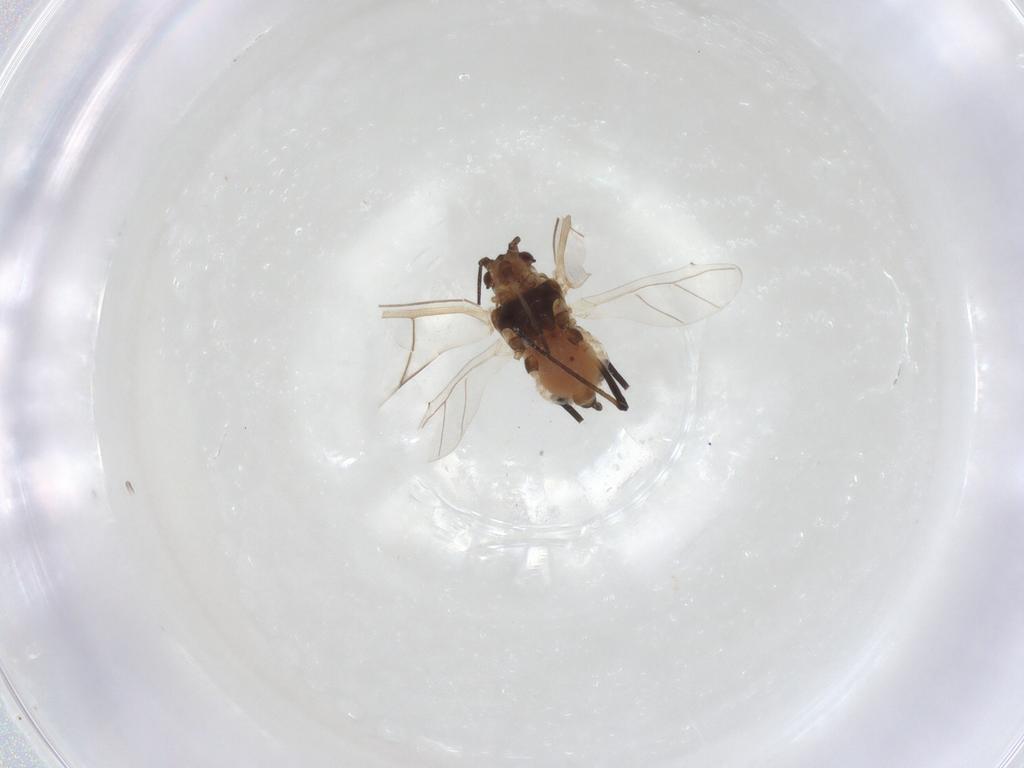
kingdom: Animalia
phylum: Arthropoda
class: Insecta
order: Hemiptera
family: Aphididae
